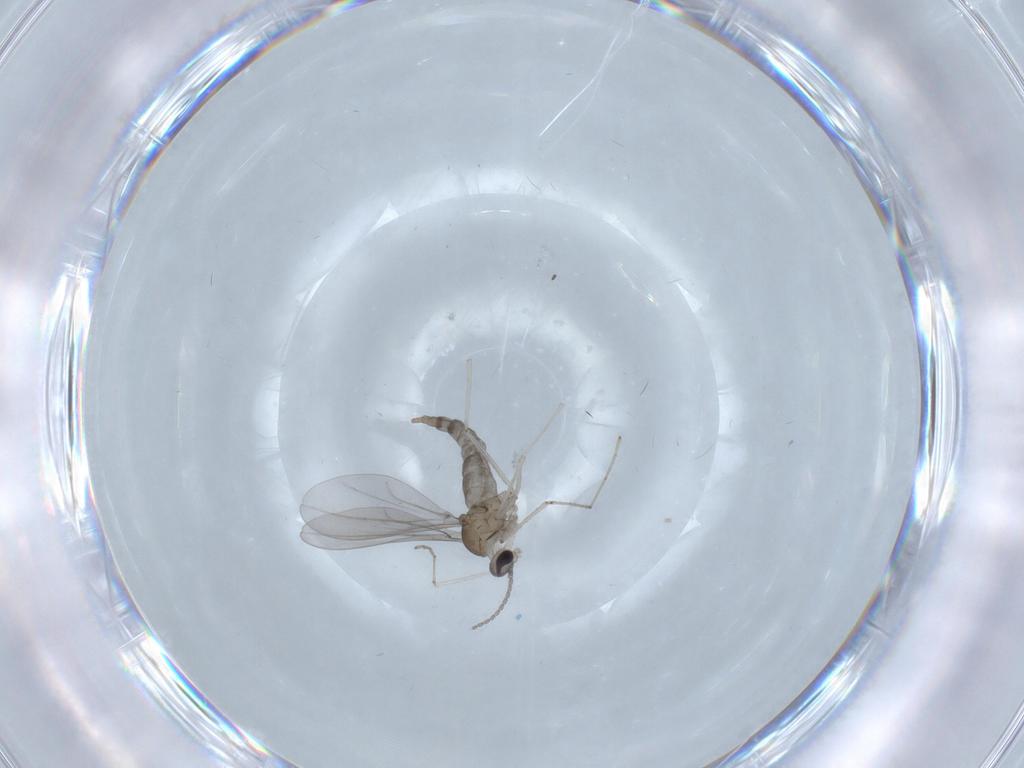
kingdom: Animalia
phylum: Arthropoda
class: Insecta
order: Diptera
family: Cecidomyiidae
